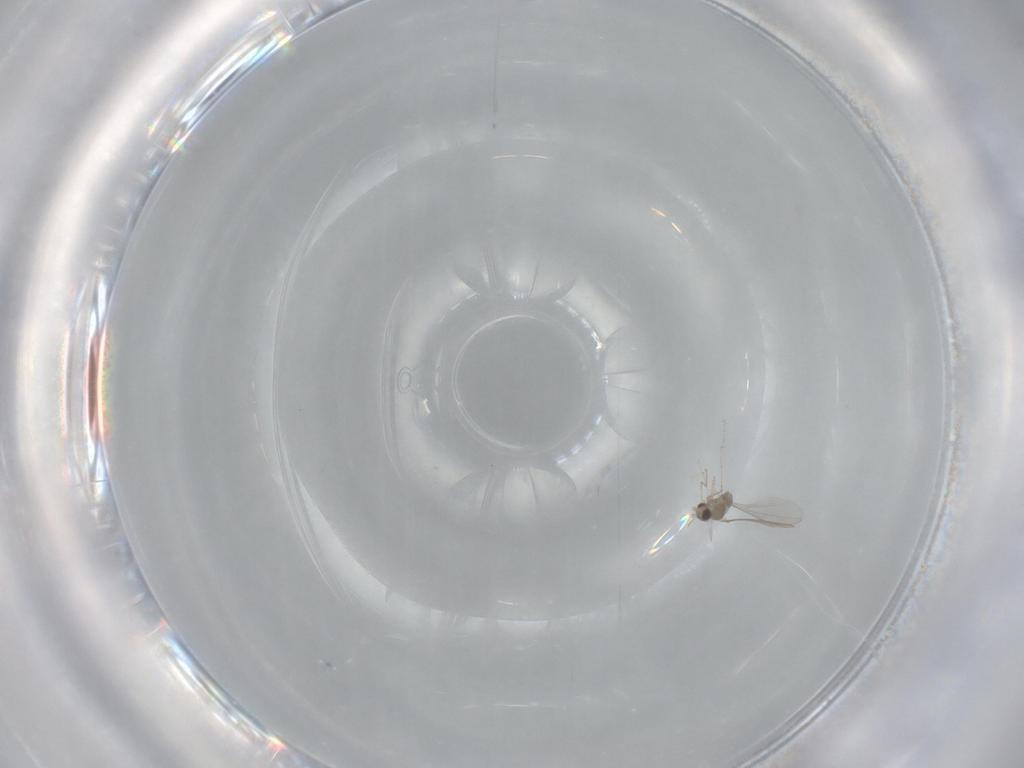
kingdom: Animalia
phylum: Arthropoda
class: Insecta
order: Diptera
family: Mycetophilidae
